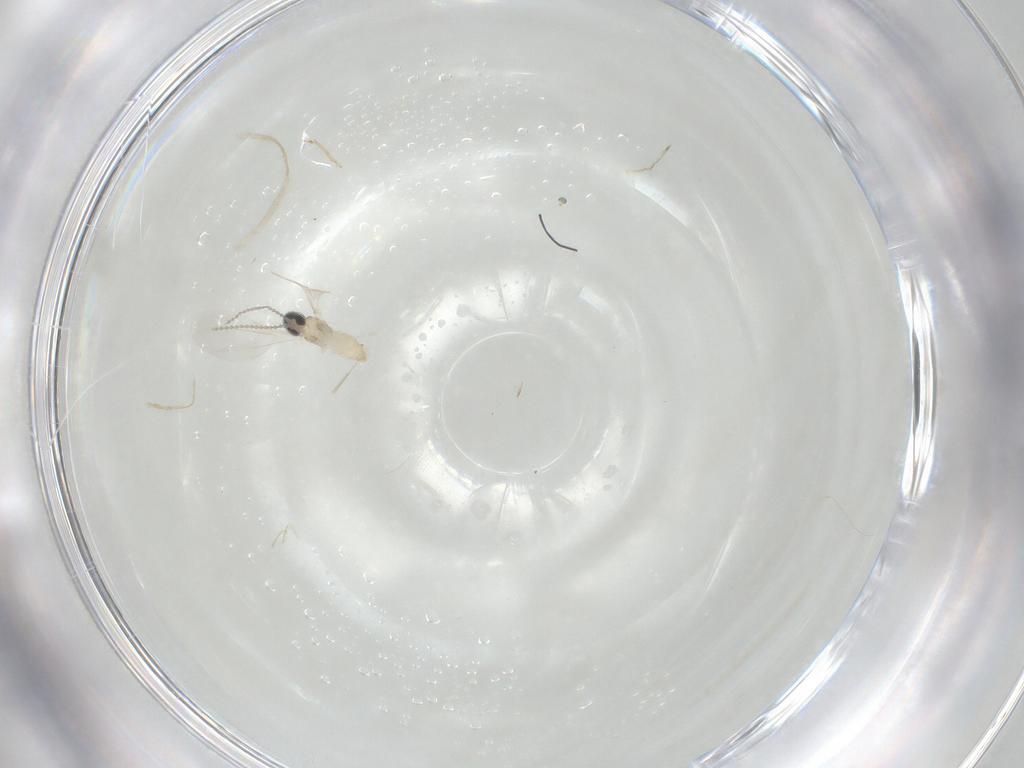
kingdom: Animalia
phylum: Arthropoda
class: Insecta
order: Diptera
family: Cecidomyiidae
